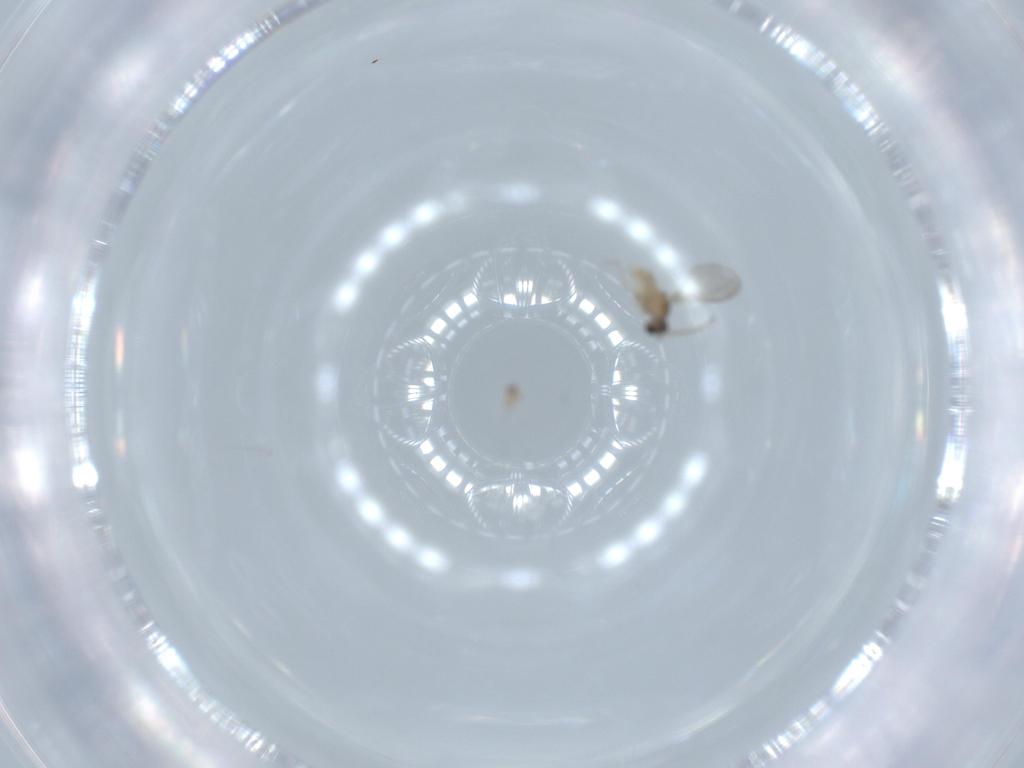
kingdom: Animalia
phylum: Arthropoda
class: Insecta
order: Diptera
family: Cecidomyiidae
